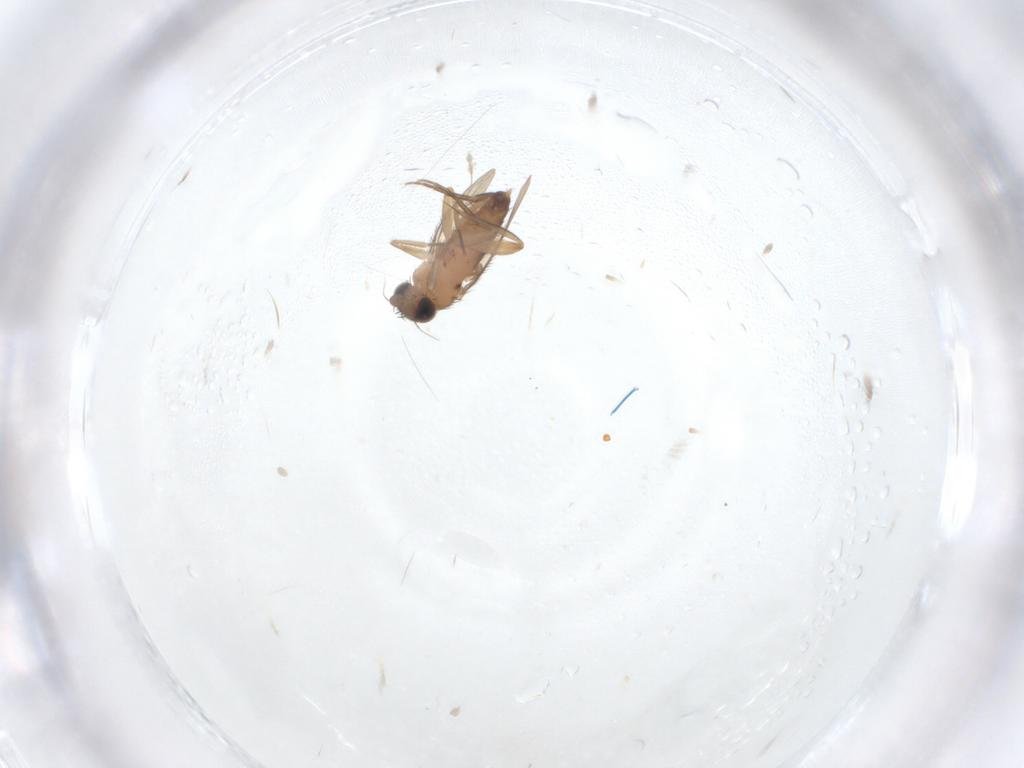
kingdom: Animalia
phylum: Arthropoda
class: Insecta
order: Diptera
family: Phoridae
